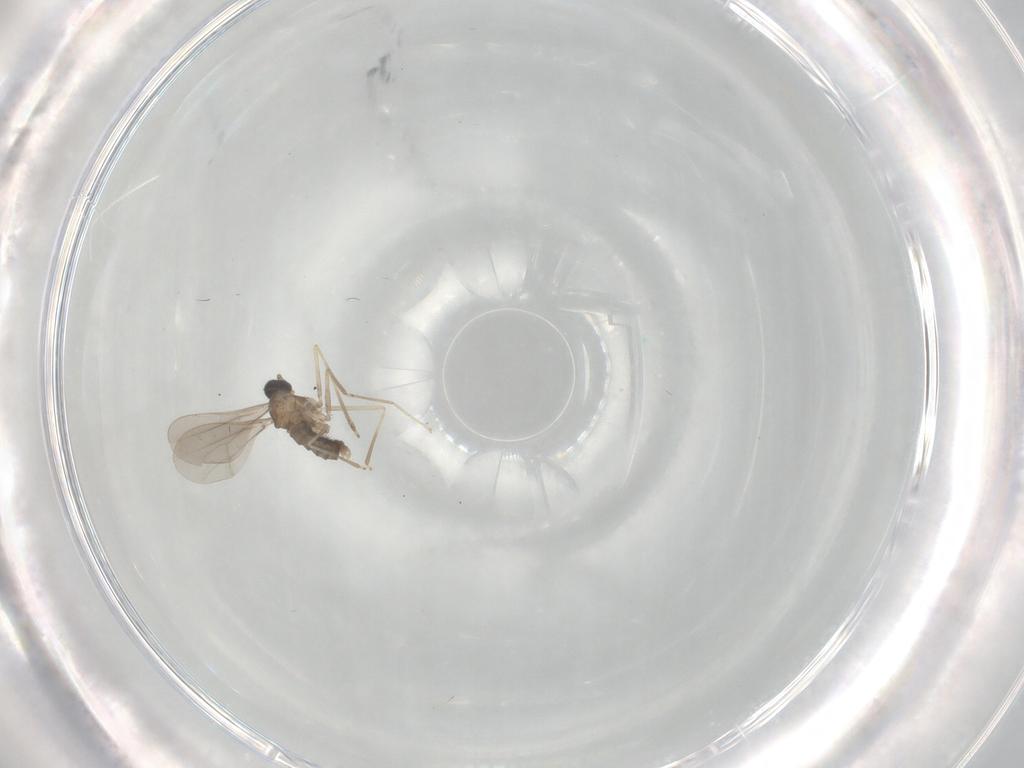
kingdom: Animalia
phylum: Arthropoda
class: Insecta
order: Diptera
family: Cecidomyiidae
